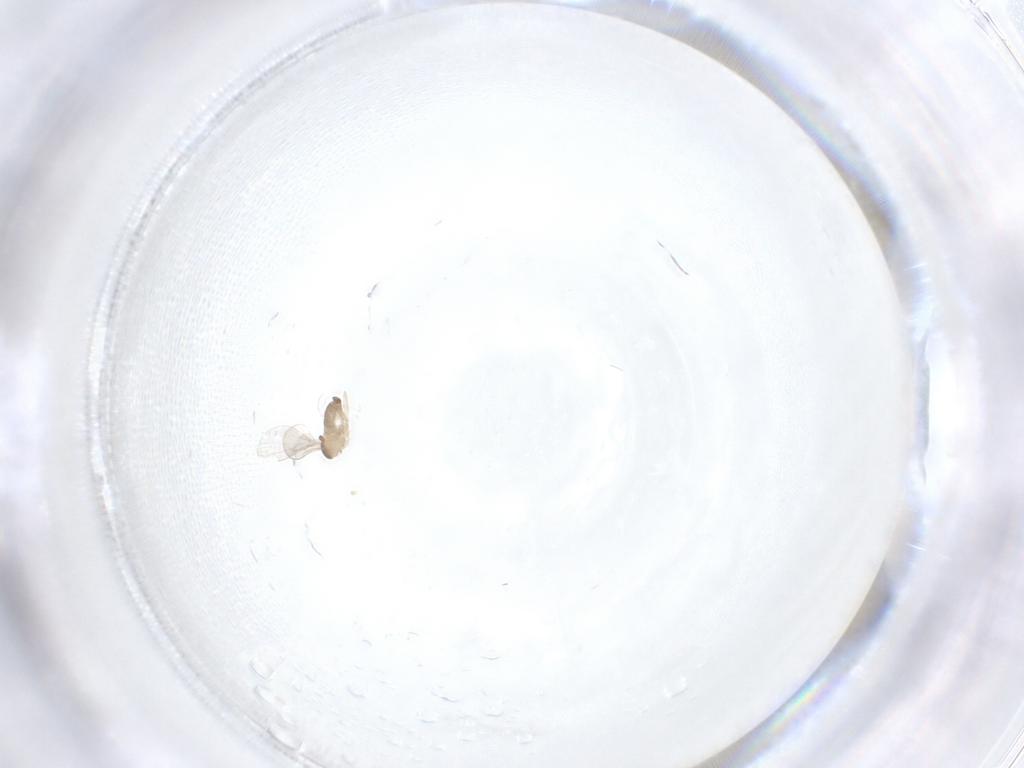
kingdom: Animalia
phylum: Arthropoda
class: Insecta
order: Diptera
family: Cecidomyiidae
